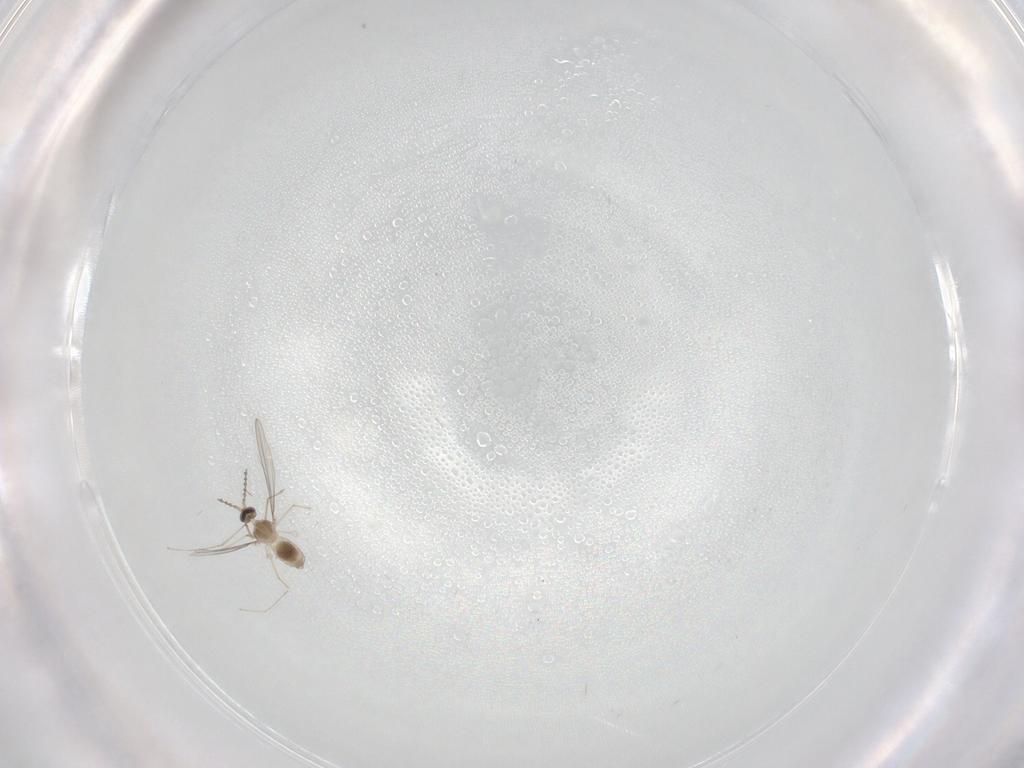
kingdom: Animalia
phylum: Arthropoda
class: Insecta
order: Diptera
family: Cecidomyiidae
